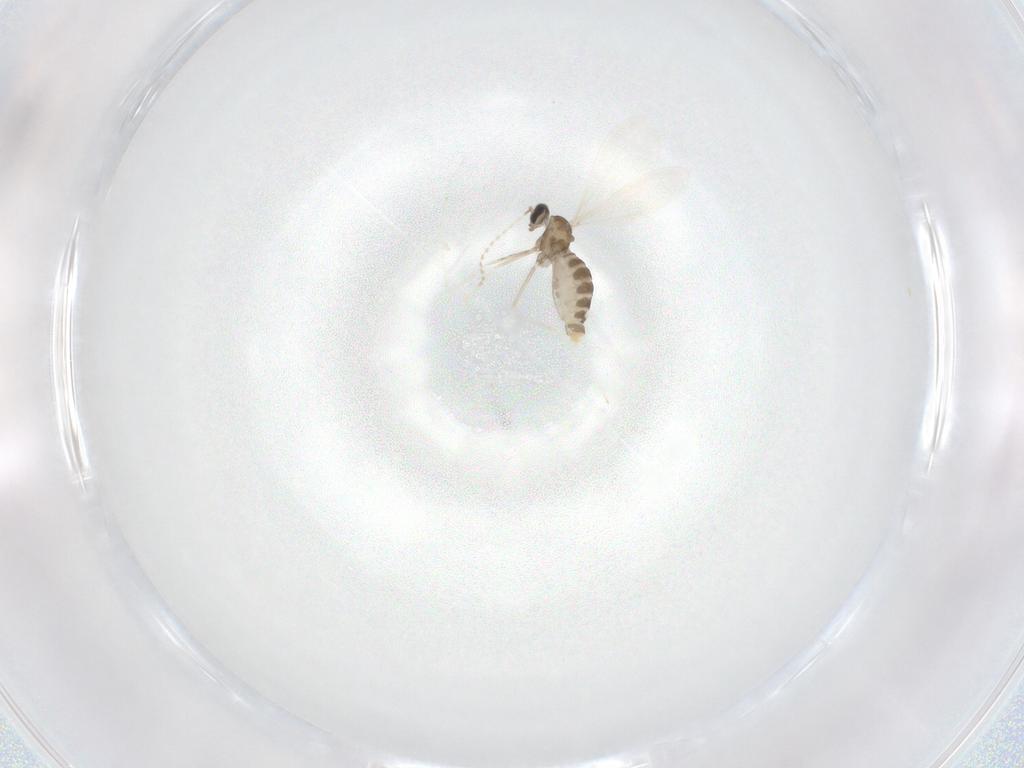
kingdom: Animalia
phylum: Arthropoda
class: Insecta
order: Diptera
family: Cecidomyiidae
